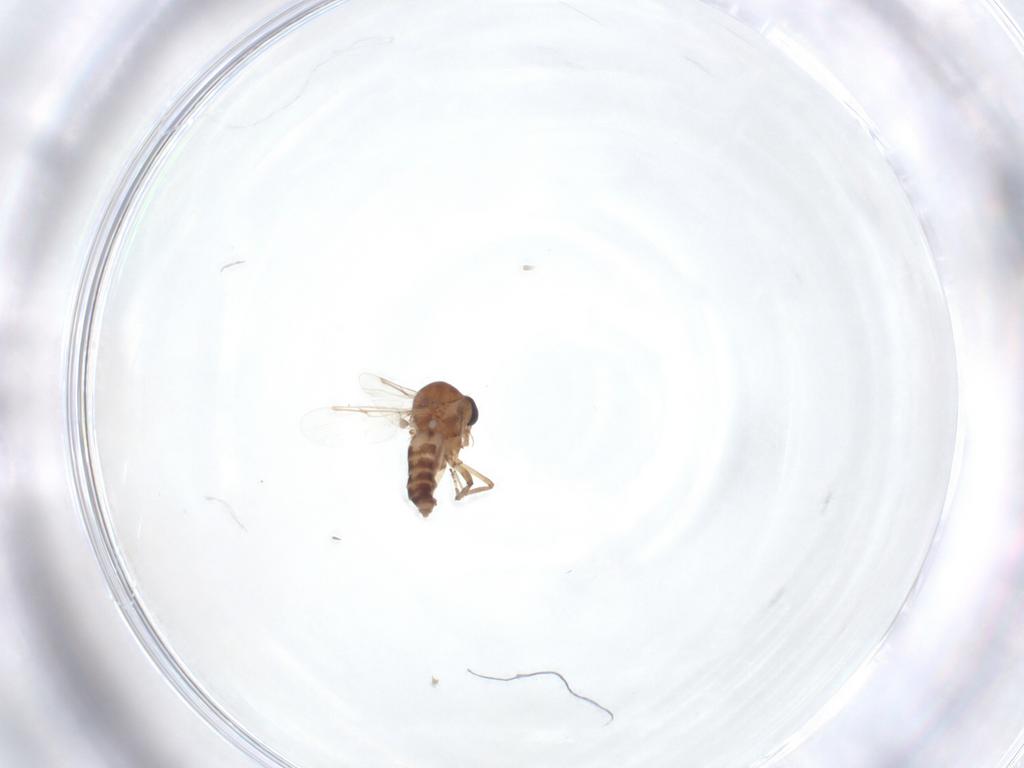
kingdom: Animalia
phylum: Arthropoda
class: Insecta
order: Diptera
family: Ceratopogonidae
